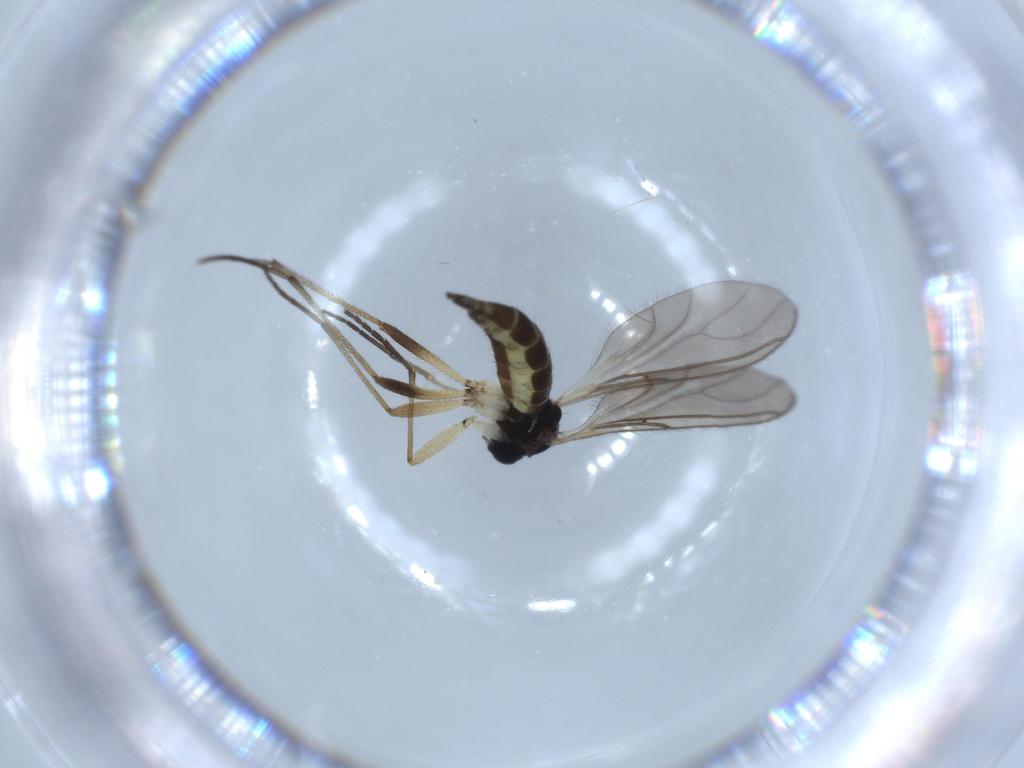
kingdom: Animalia
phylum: Arthropoda
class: Insecta
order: Diptera
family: Sciaridae
